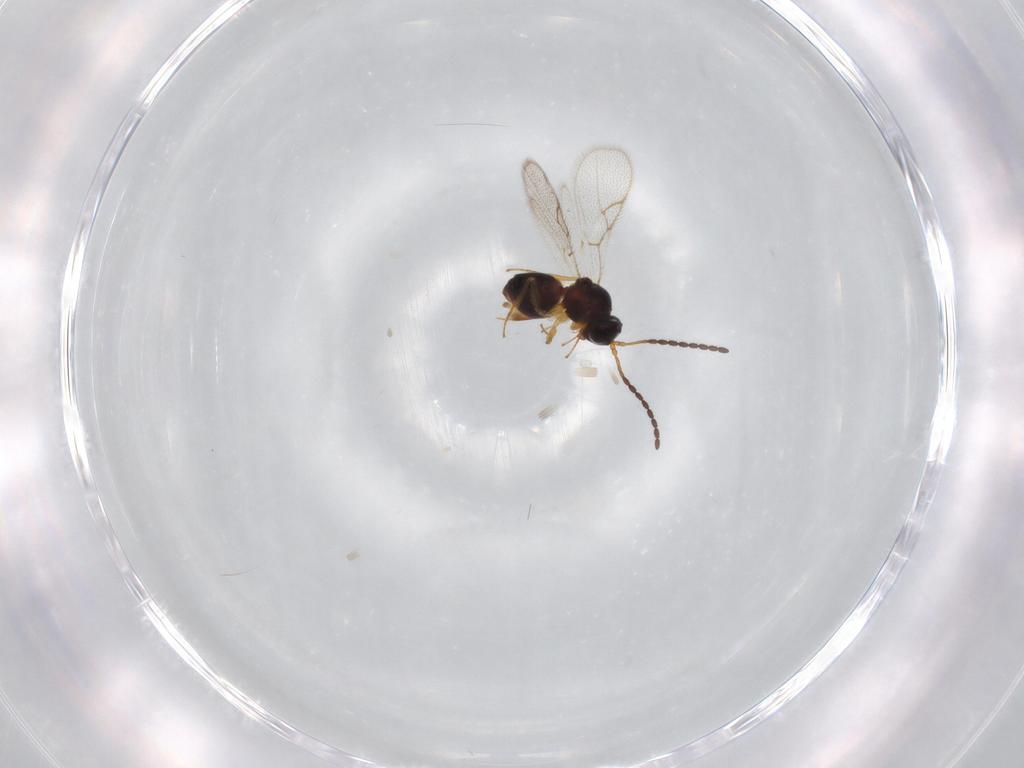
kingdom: Animalia
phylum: Arthropoda
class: Insecta
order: Hymenoptera
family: Figitidae
